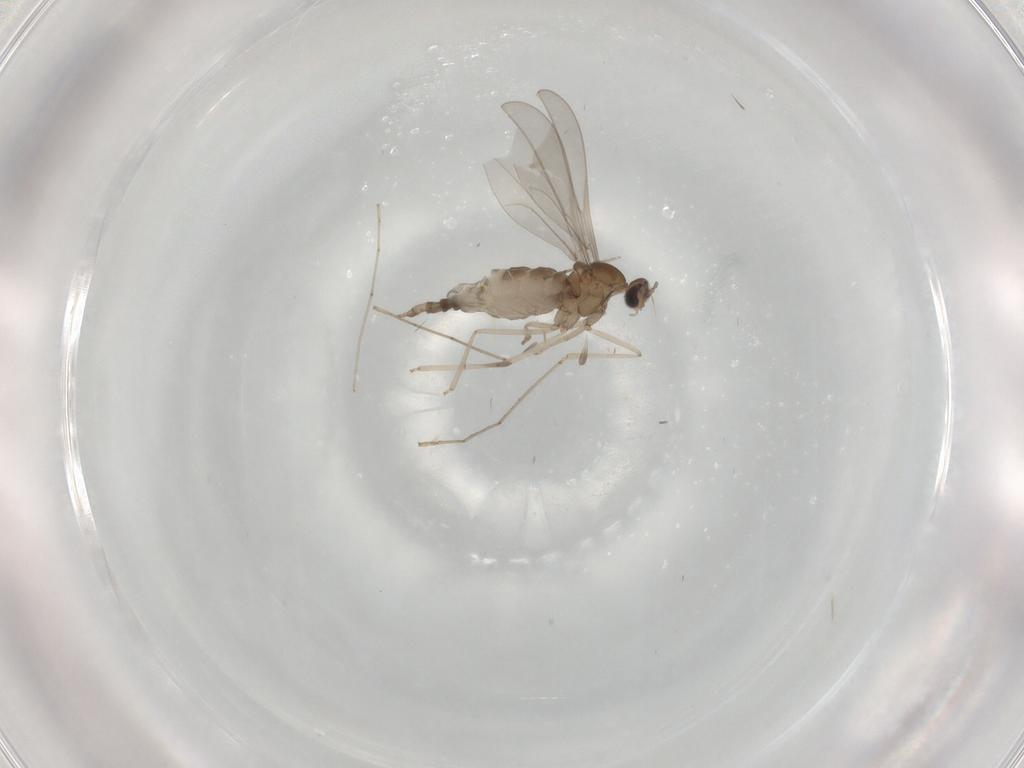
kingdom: Animalia
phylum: Arthropoda
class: Insecta
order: Diptera
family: Cecidomyiidae
